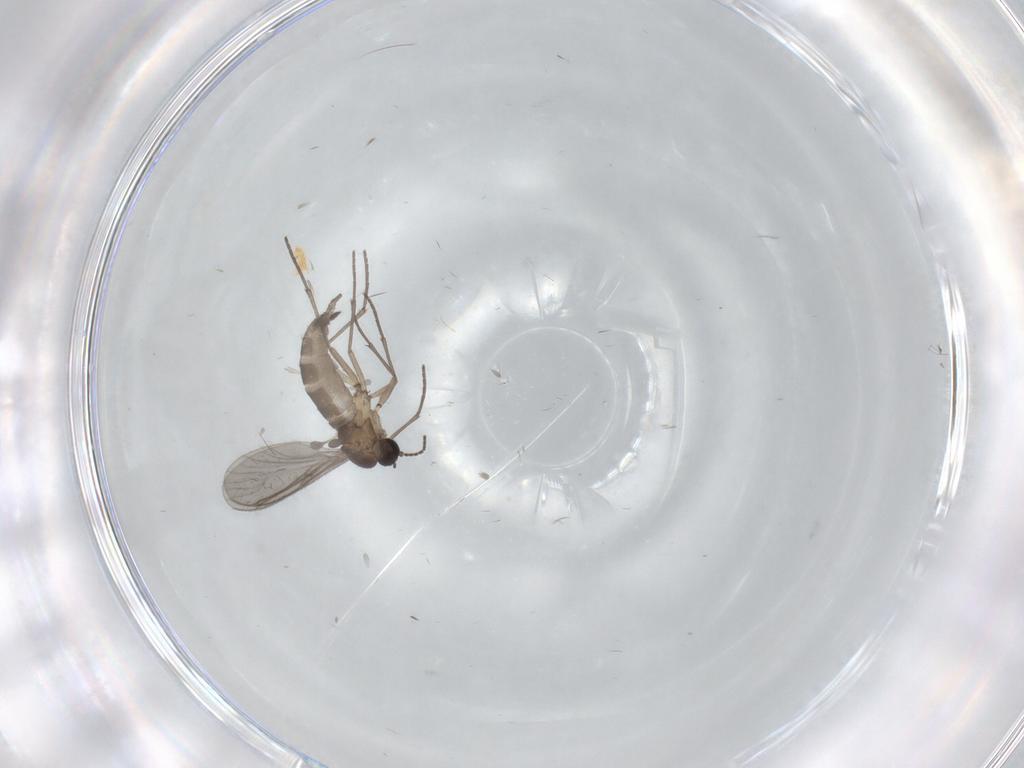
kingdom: Animalia
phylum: Arthropoda
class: Insecta
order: Diptera
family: Sciaridae
